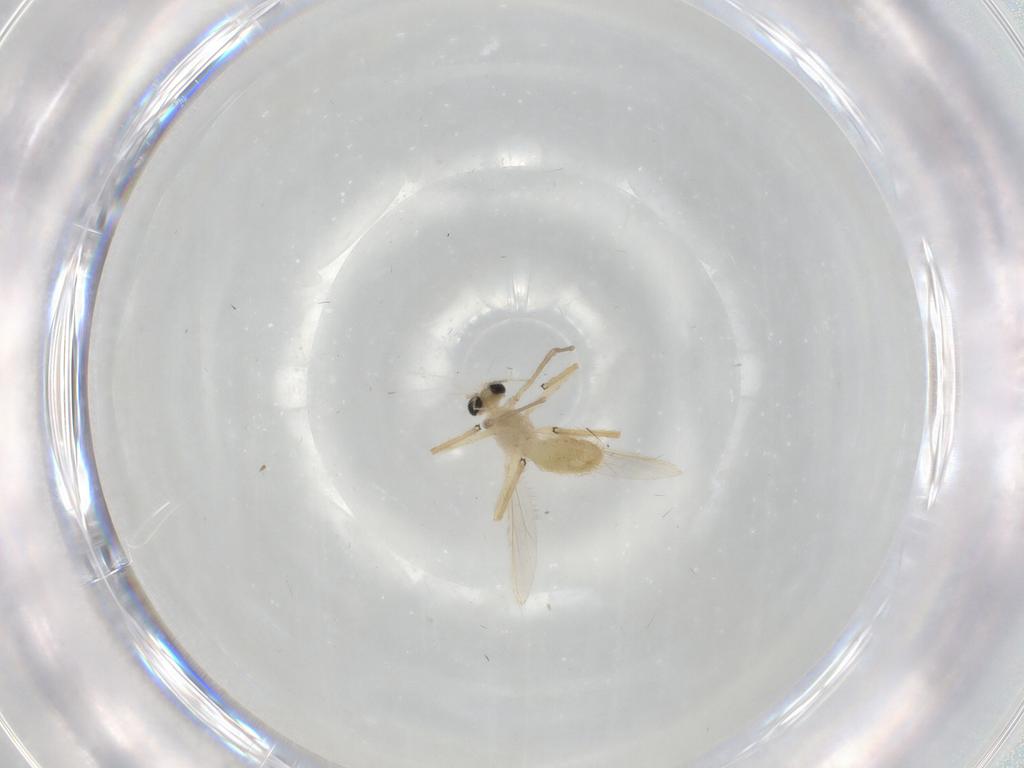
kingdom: Animalia
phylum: Arthropoda
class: Insecta
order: Diptera
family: Chironomidae
